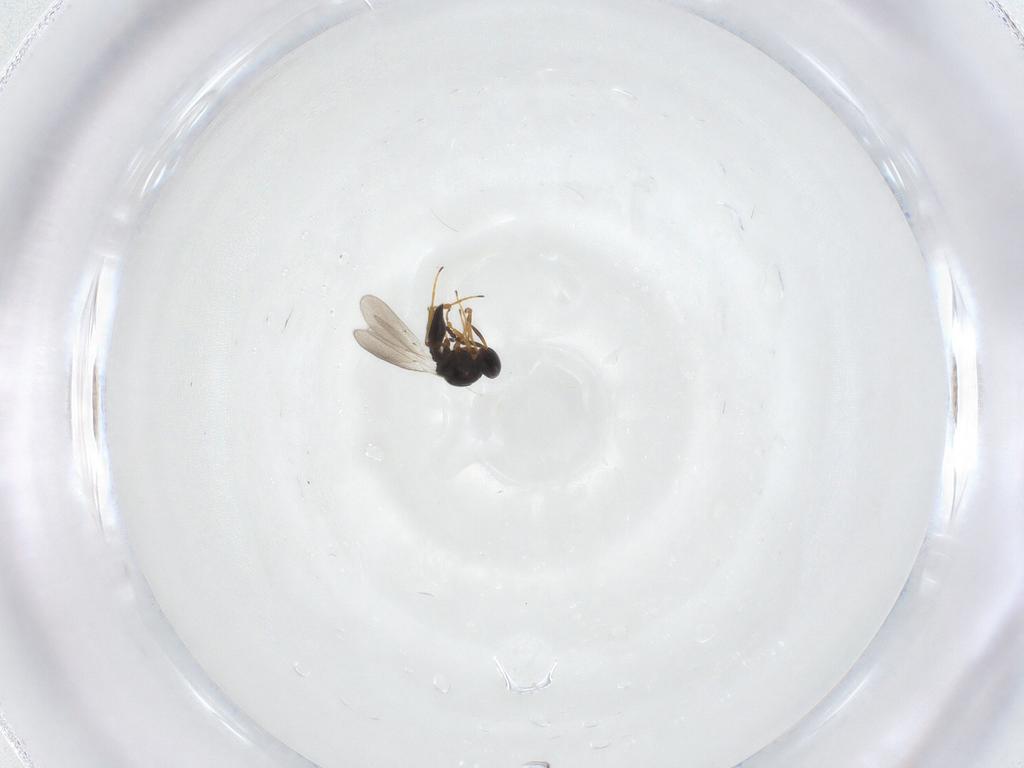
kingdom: Animalia
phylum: Arthropoda
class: Insecta
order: Hymenoptera
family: Platygastridae
